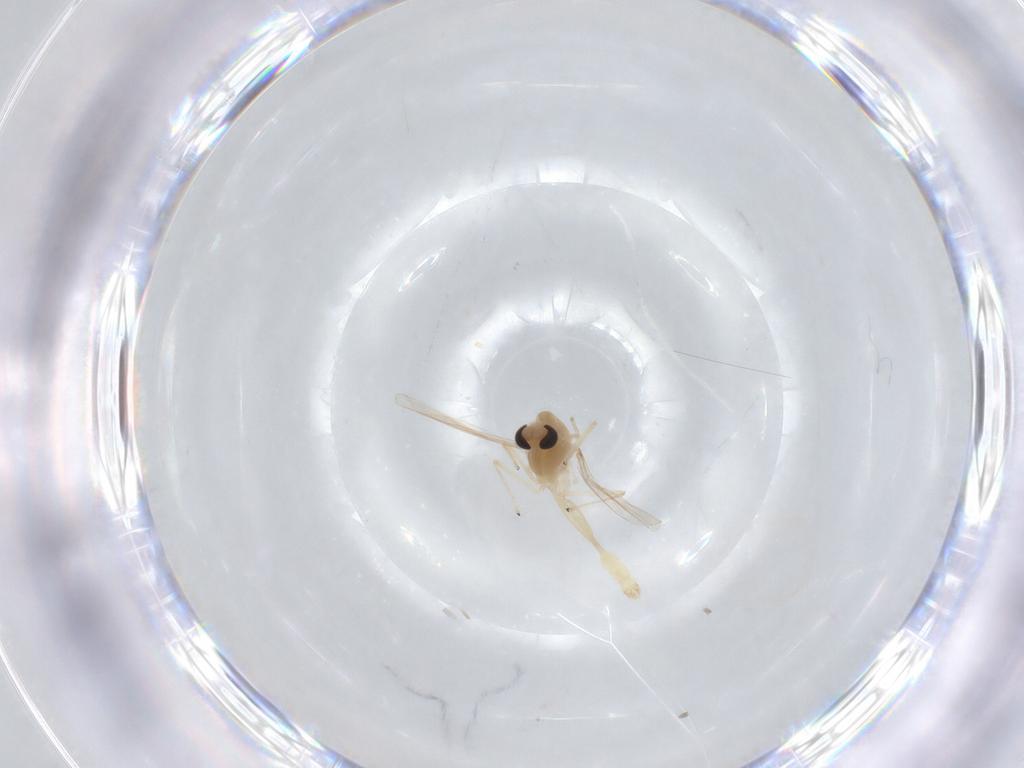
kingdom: Animalia
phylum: Arthropoda
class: Insecta
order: Diptera
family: Chironomidae
